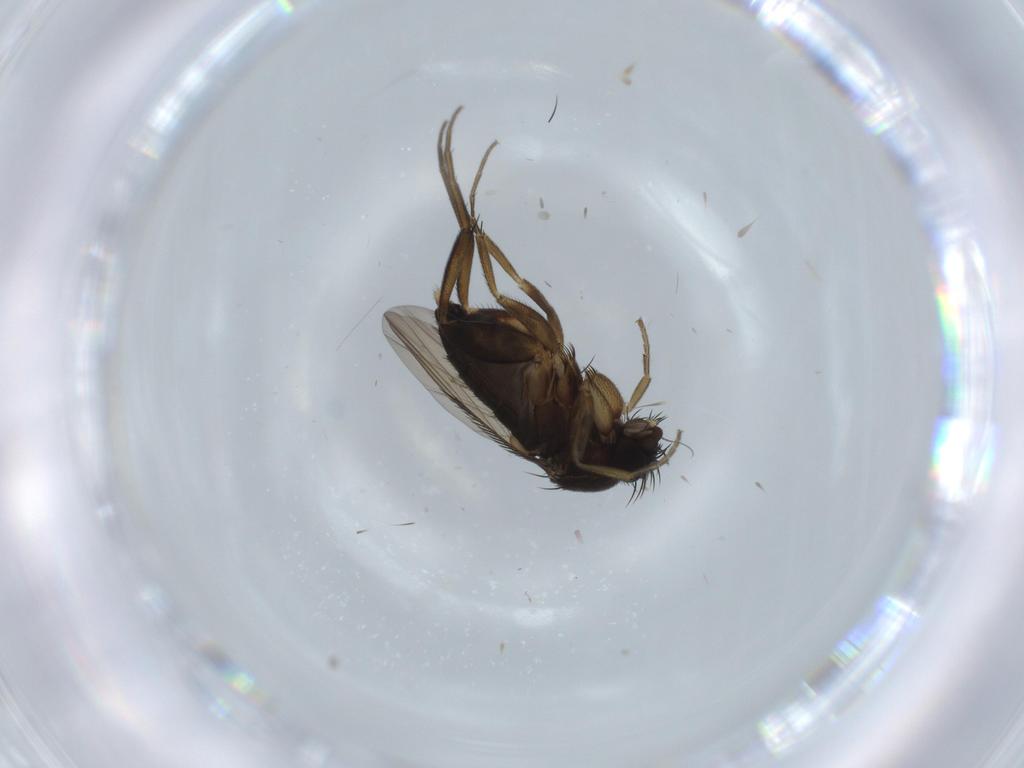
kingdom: Animalia
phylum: Arthropoda
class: Insecta
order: Diptera
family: Phoridae
